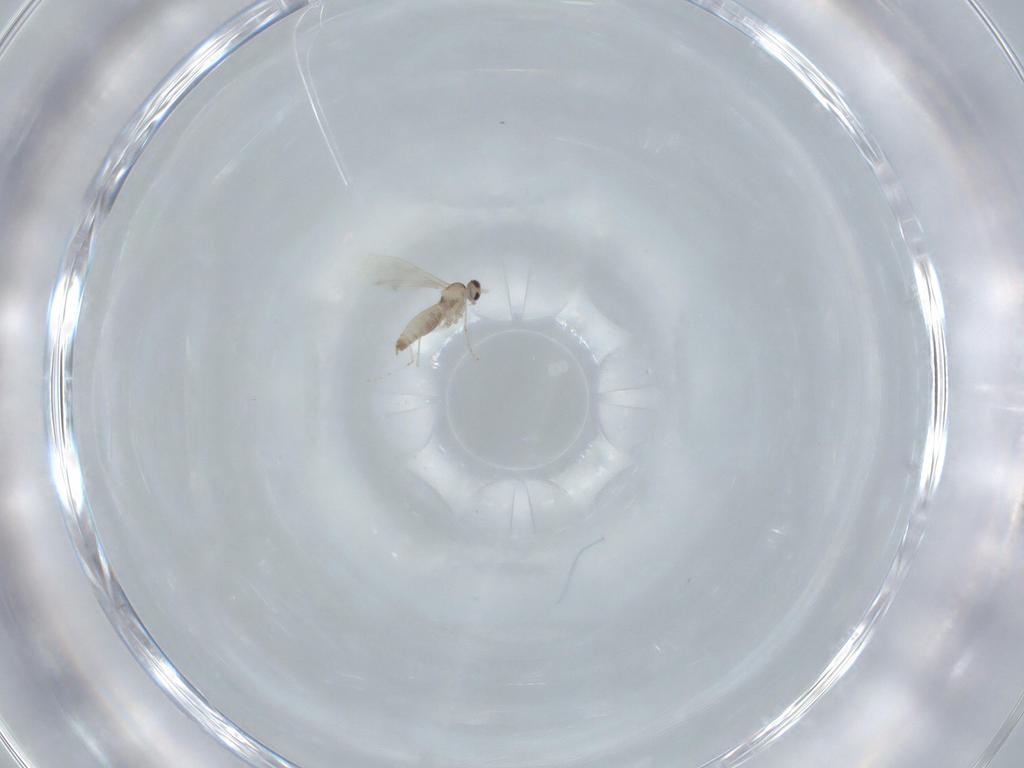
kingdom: Animalia
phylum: Arthropoda
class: Insecta
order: Diptera
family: Cecidomyiidae
